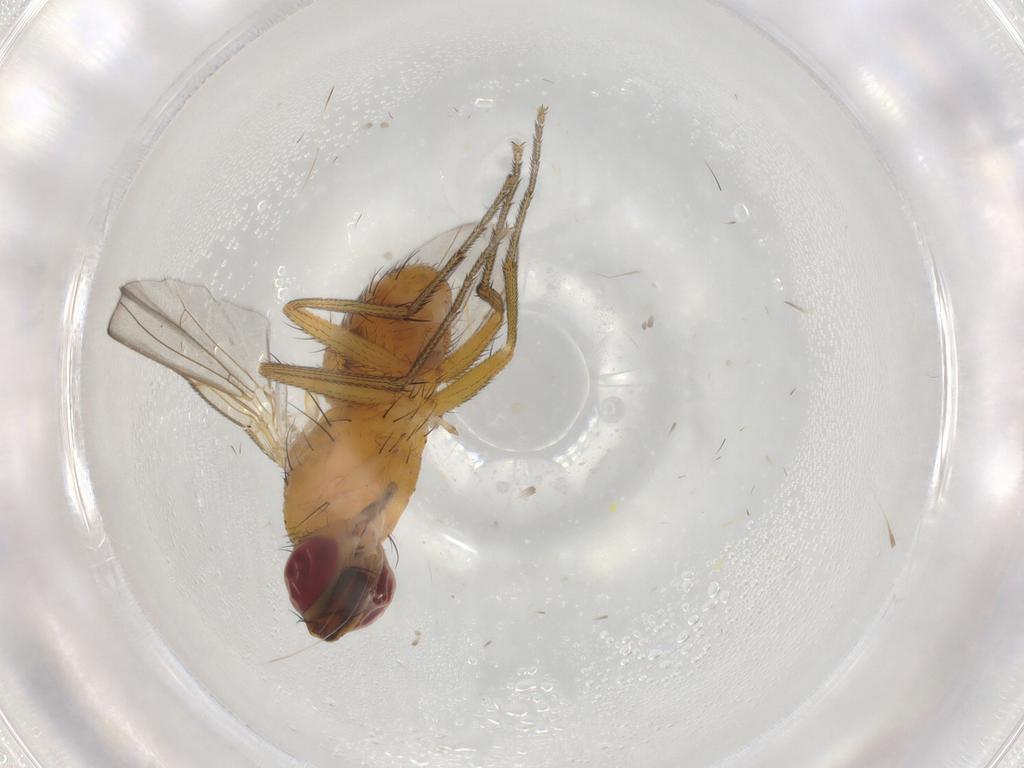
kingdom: Animalia
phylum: Arthropoda
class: Insecta
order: Diptera
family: Muscidae
